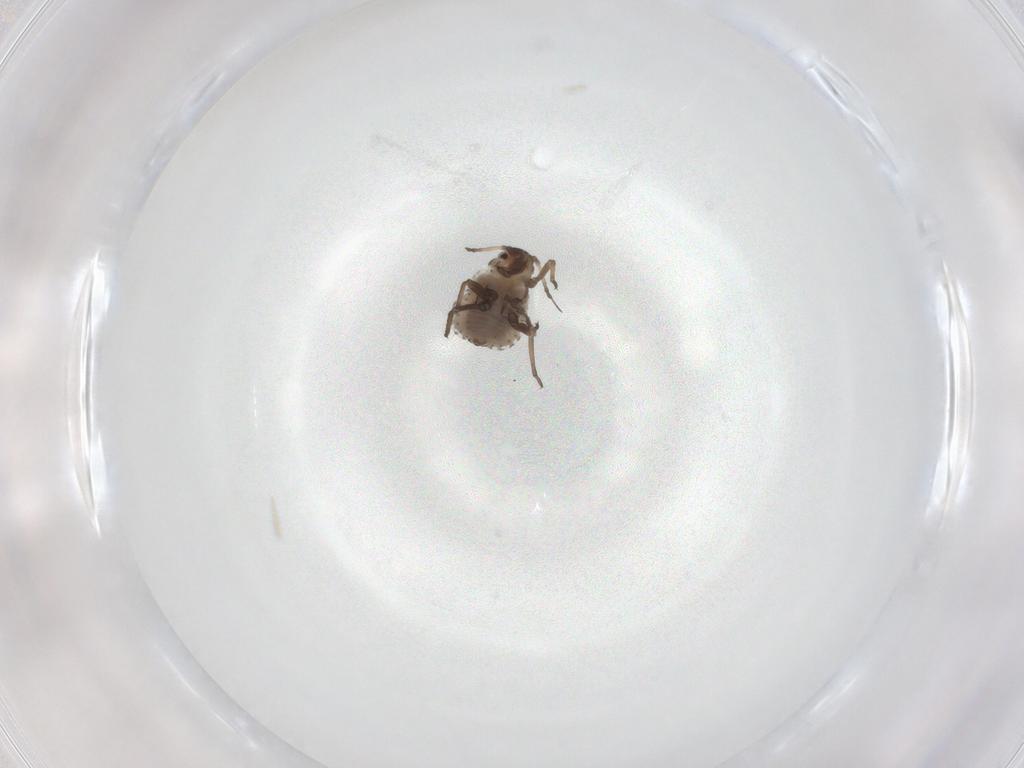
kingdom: Animalia
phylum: Arthropoda
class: Insecta
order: Hemiptera
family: Aphididae
